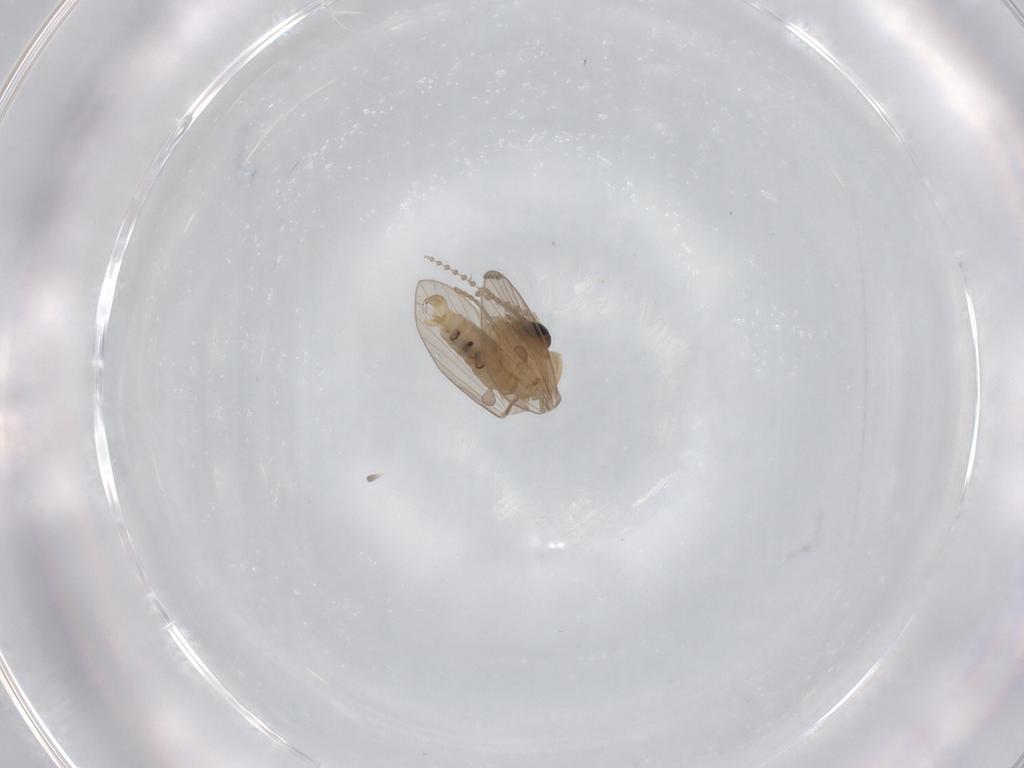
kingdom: Animalia
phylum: Arthropoda
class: Insecta
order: Diptera
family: Psychodidae
